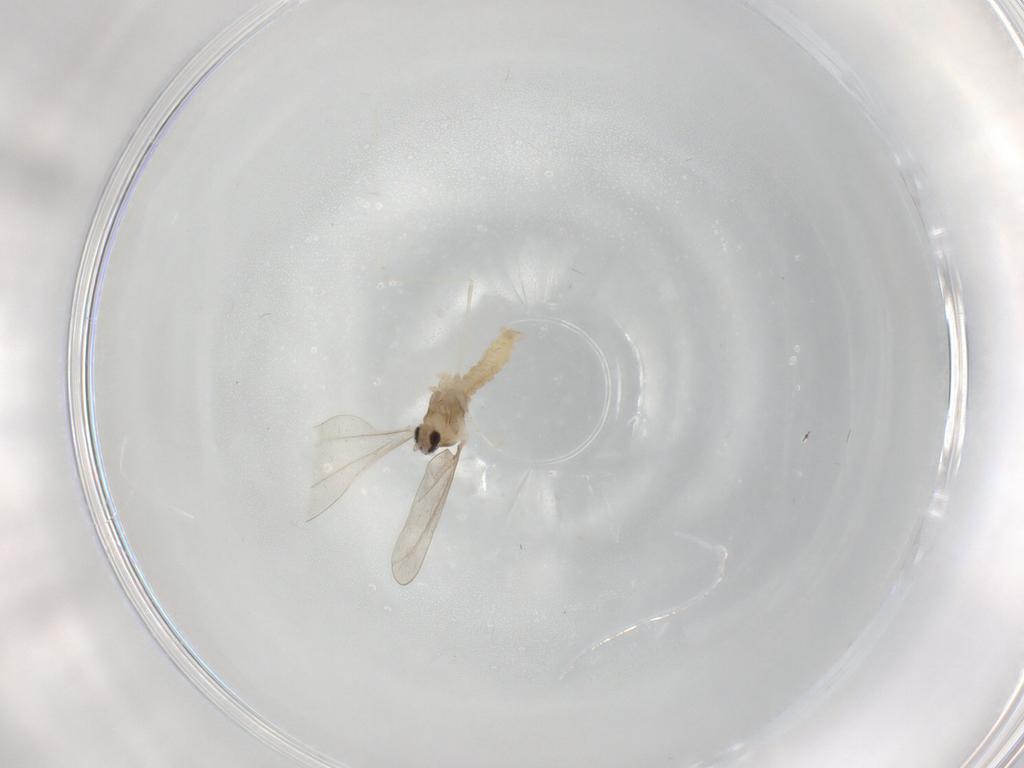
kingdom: Animalia
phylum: Arthropoda
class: Insecta
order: Diptera
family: Cecidomyiidae
